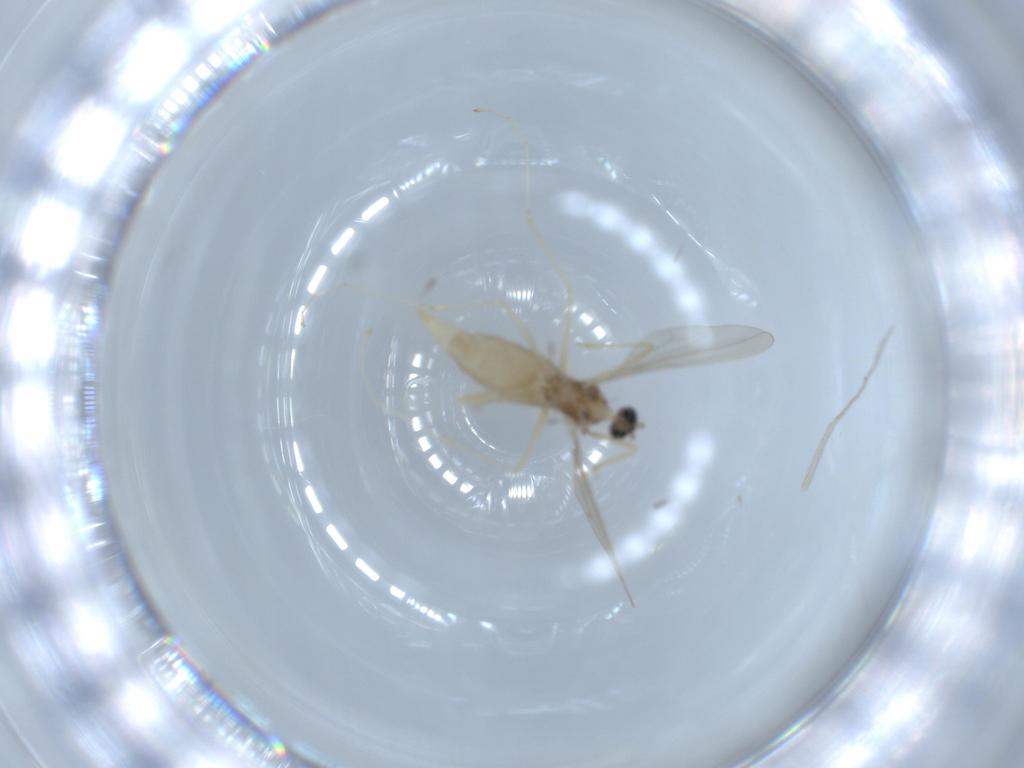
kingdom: Animalia
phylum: Arthropoda
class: Insecta
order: Diptera
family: Cecidomyiidae
